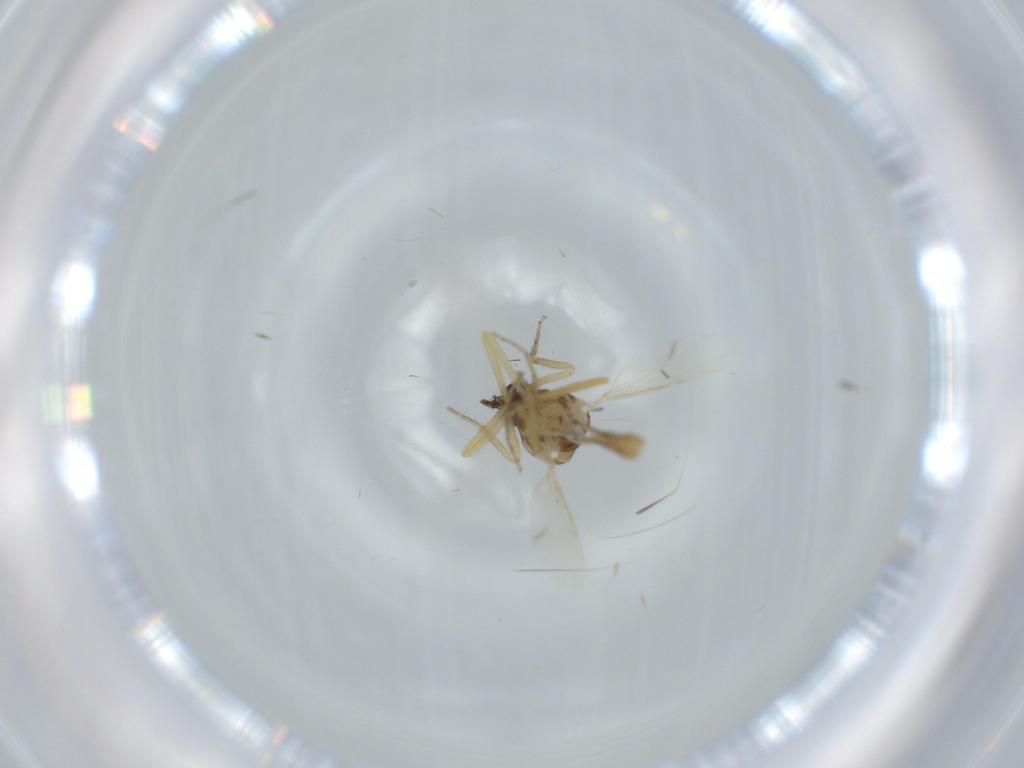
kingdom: Animalia
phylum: Arthropoda
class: Insecta
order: Diptera
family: Ceratopogonidae
